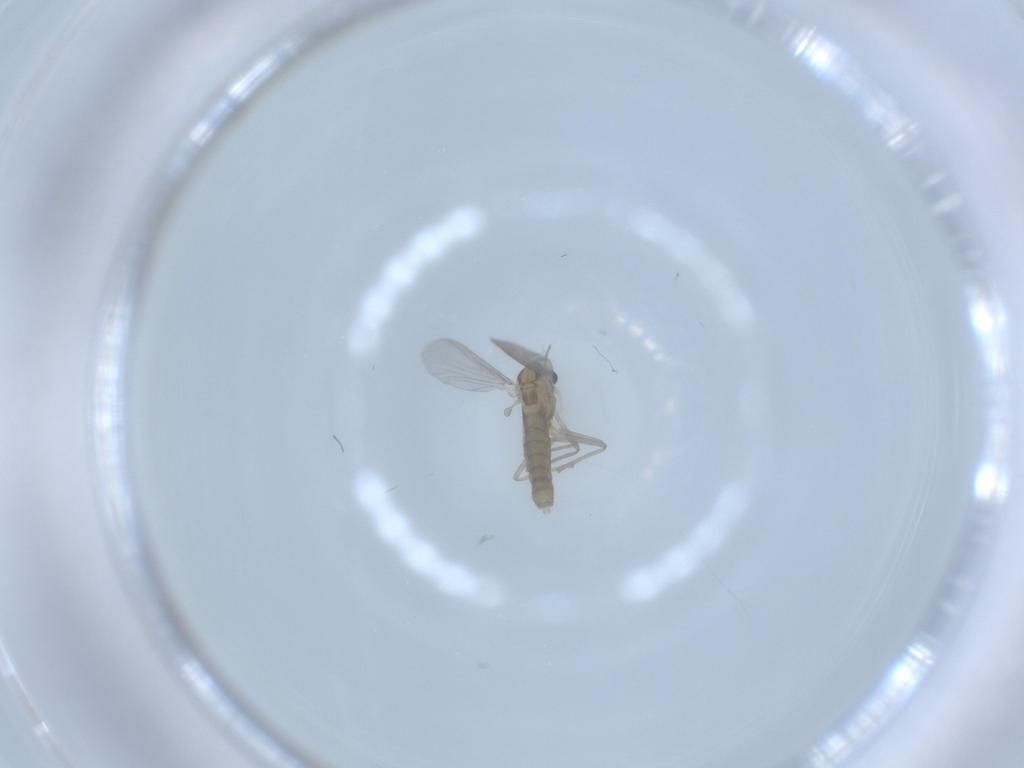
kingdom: Animalia
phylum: Arthropoda
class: Insecta
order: Diptera
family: Chironomidae
